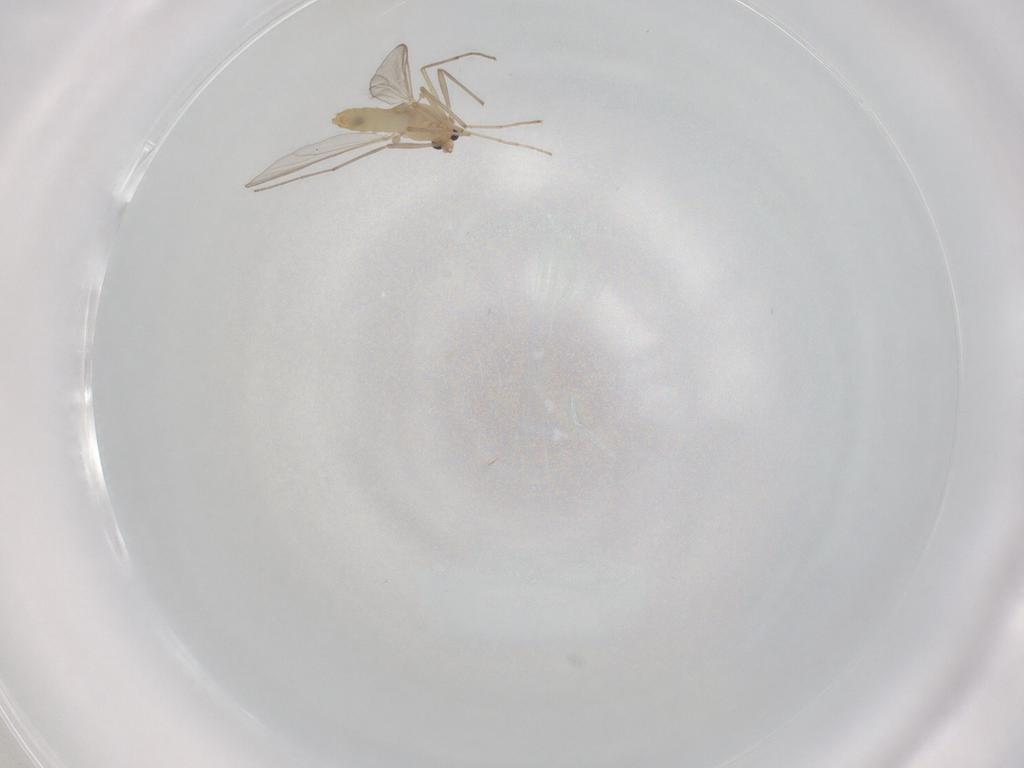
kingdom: Animalia
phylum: Arthropoda
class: Insecta
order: Diptera
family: Chironomidae
